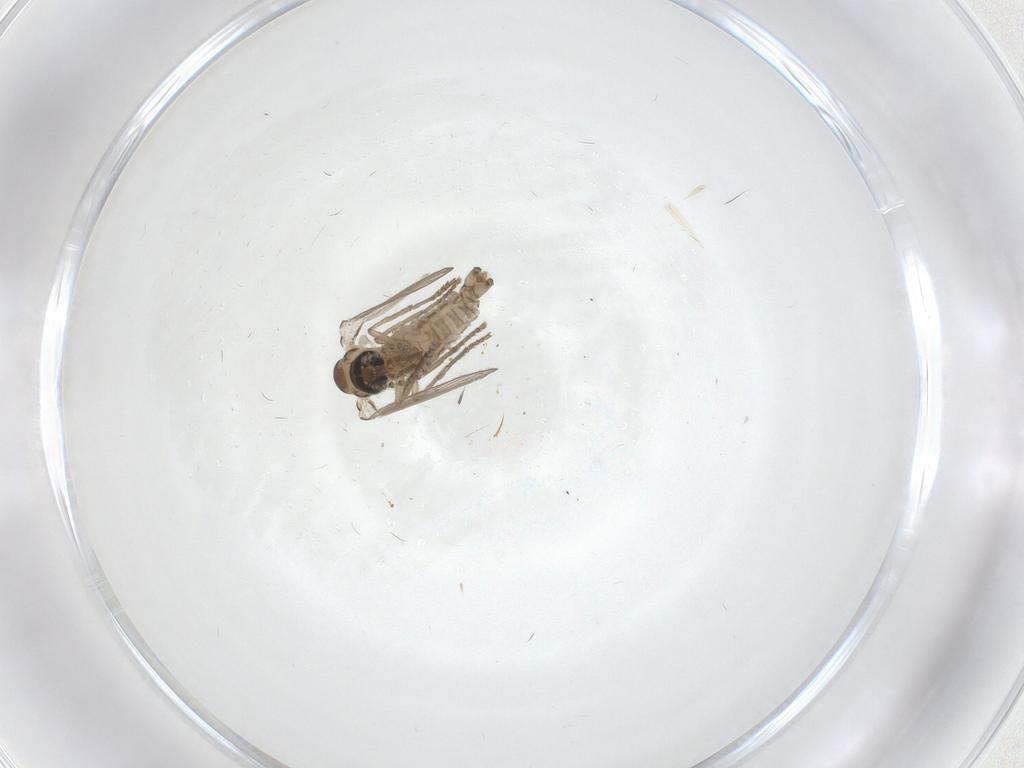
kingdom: Animalia
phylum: Arthropoda
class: Insecta
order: Diptera
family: Psychodidae
